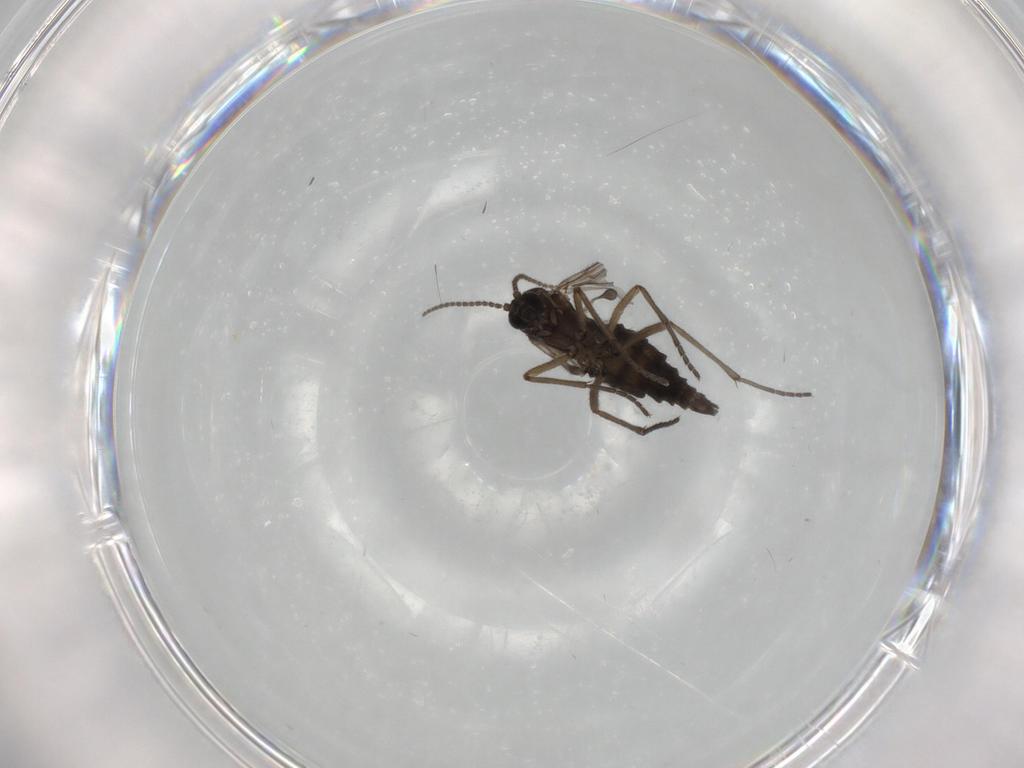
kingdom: Animalia
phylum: Arthropoda
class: Insecta
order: Diptera
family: Sciaridae
